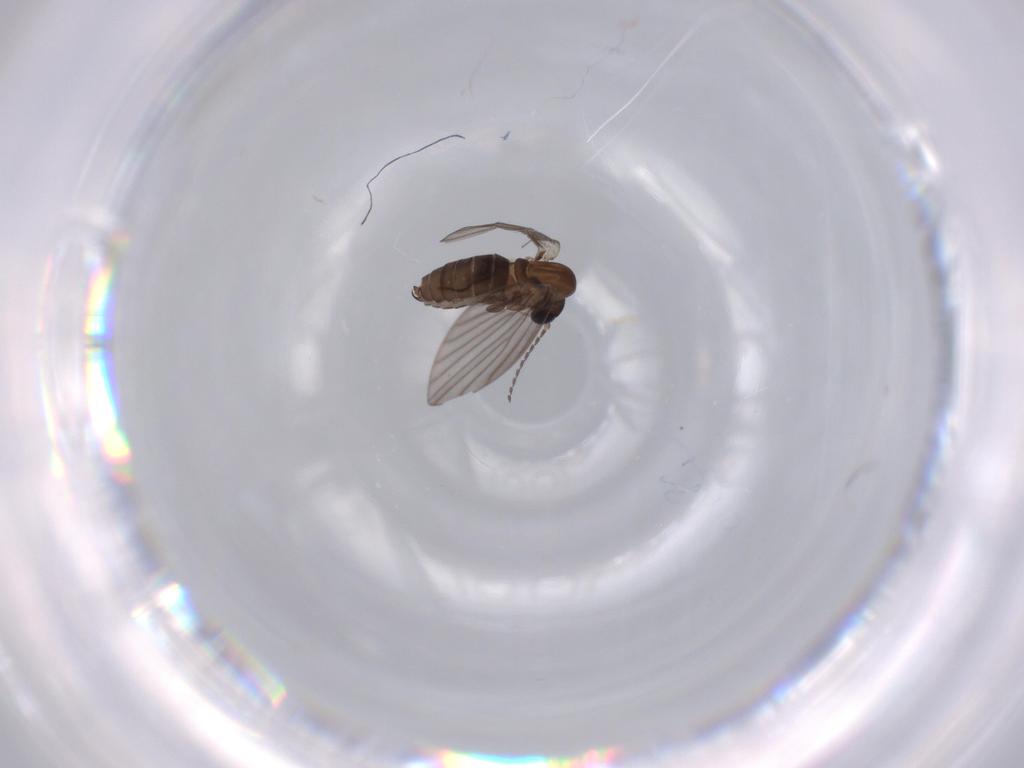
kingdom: Animalia
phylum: Arthropoda
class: Insecta
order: Diptera
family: Psychodidae
